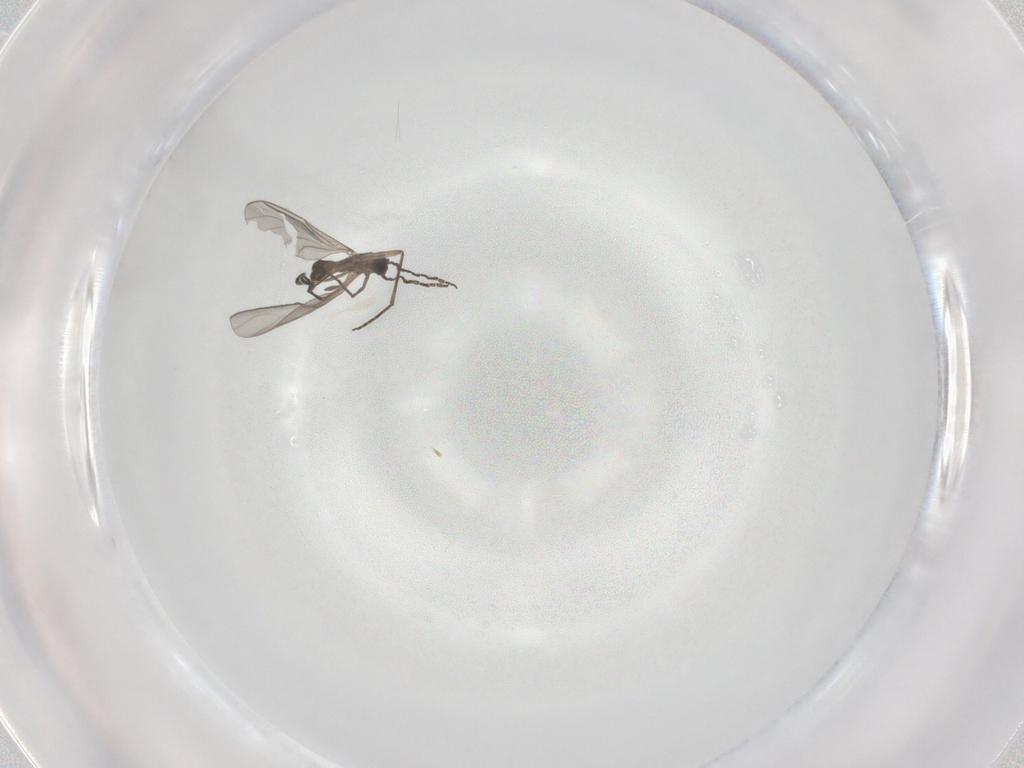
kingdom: Animalia
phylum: Arthropoda
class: Insecta
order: Diptera
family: Sciaridae
